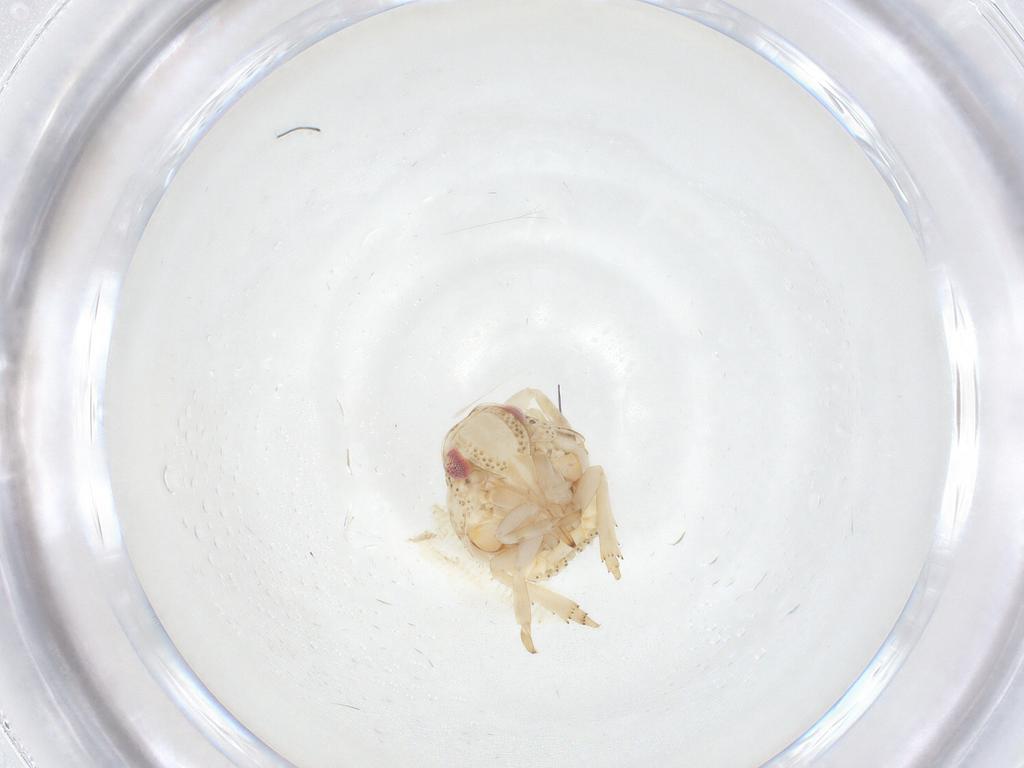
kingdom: Animalia
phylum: Arthropoda
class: Insecta
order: Hemiptera
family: Acanaloniidae
